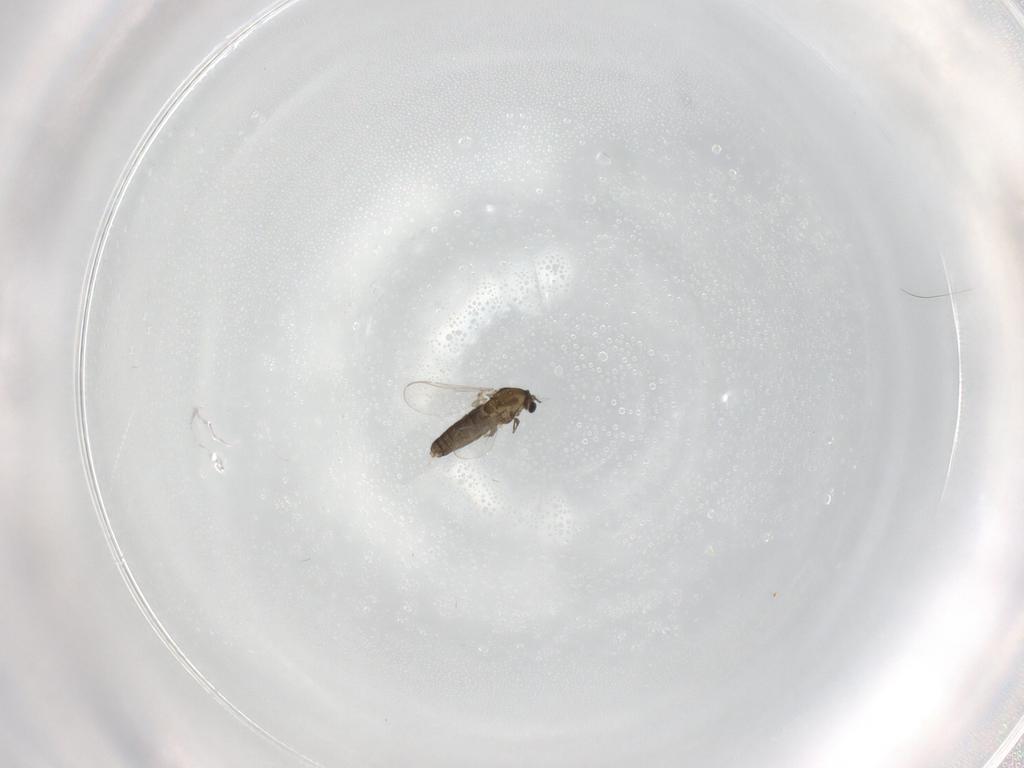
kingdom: Animalia
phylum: Arthropoda
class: Insecta
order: Diptera
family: Chironomidae
